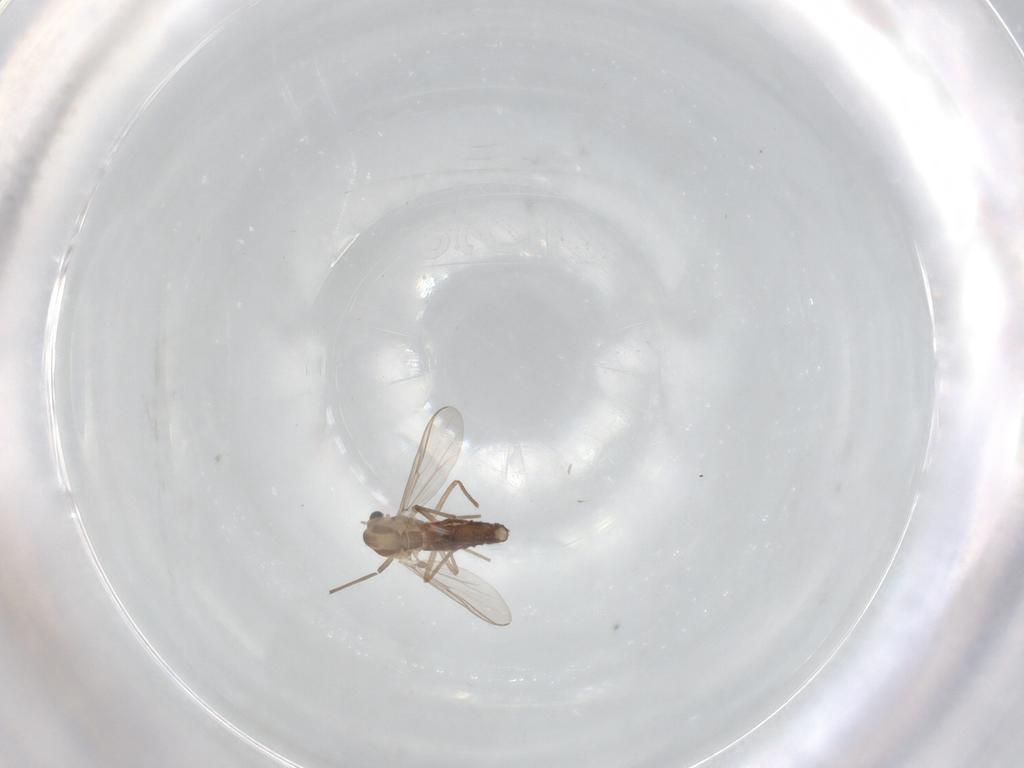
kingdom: Animalia
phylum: Arthropoda
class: Insecta
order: Diptera
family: Chironomidae
